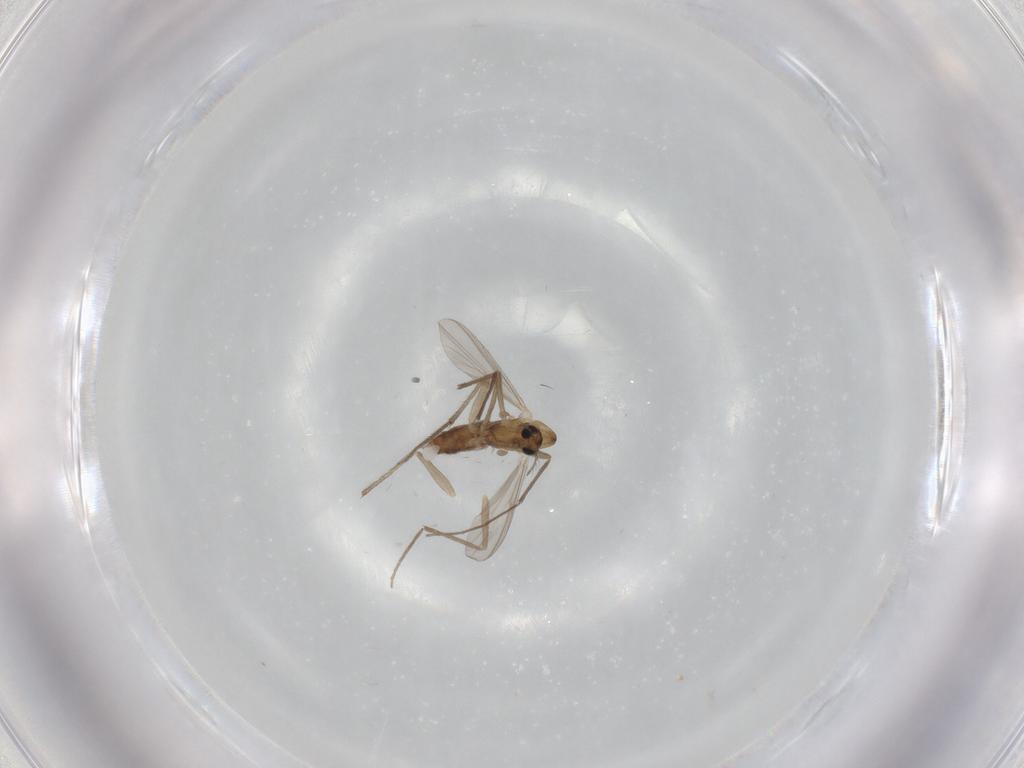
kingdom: Animalia
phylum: Arthropoda
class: Insecta
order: Diptera
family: Chironomidae
